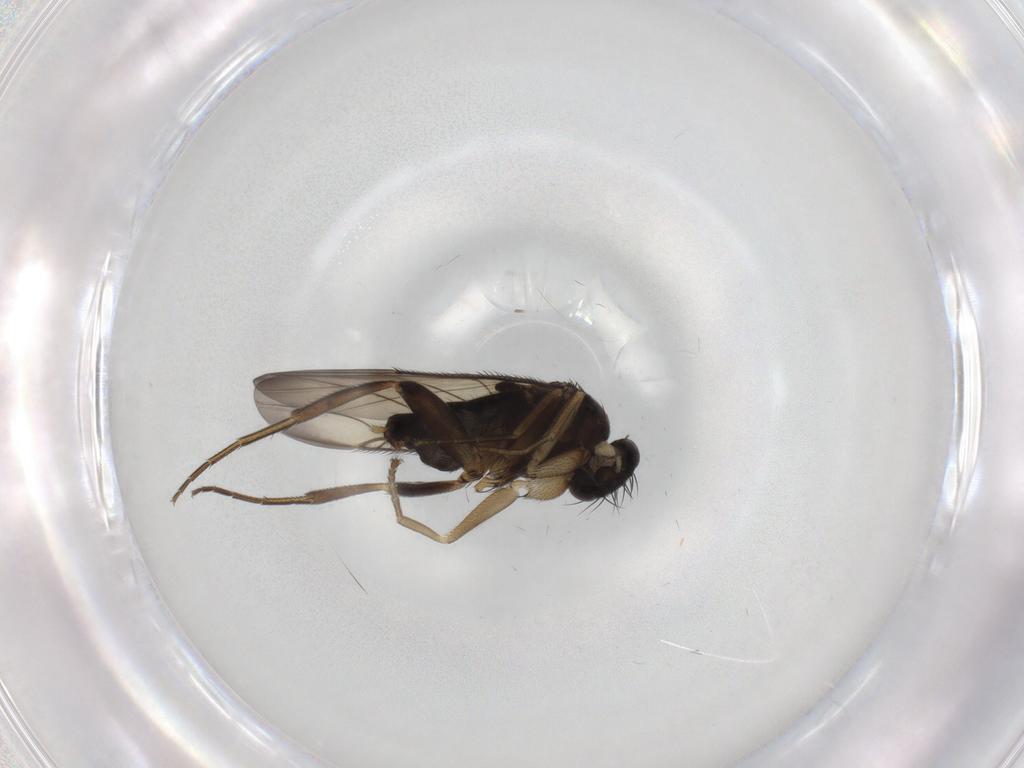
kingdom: Animalia
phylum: Arthropoda
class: Insecta
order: Diptera
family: Phoridae
